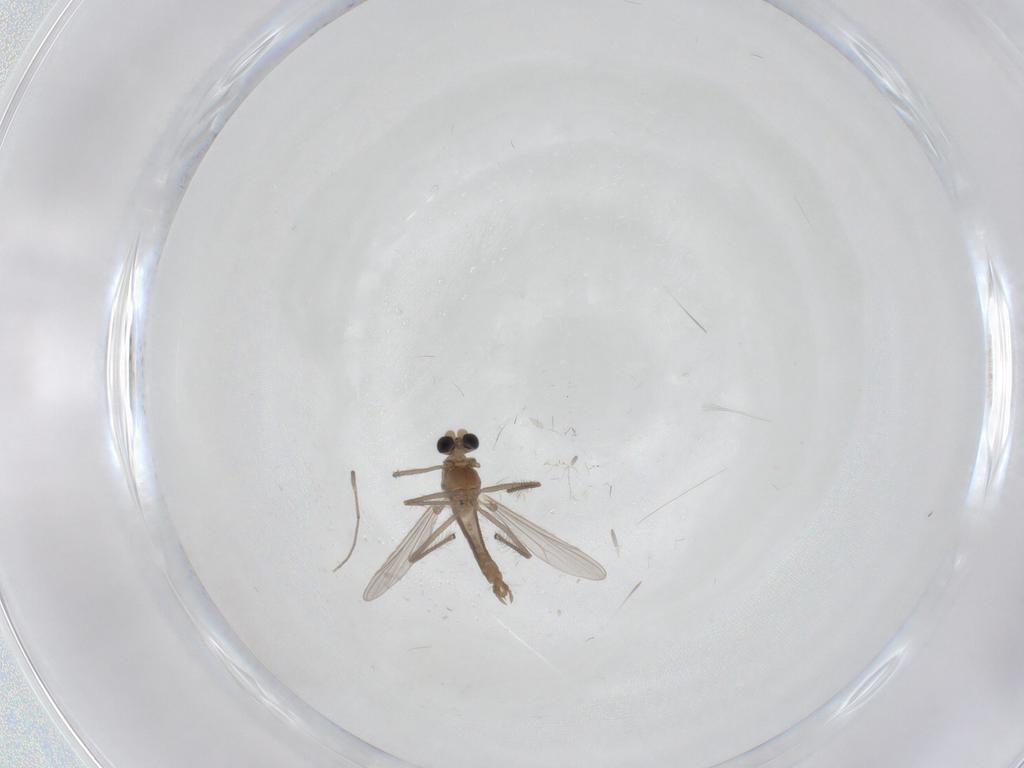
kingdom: Animalia
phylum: Arthropoda
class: Insecta
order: Diptera
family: Chironomidae
